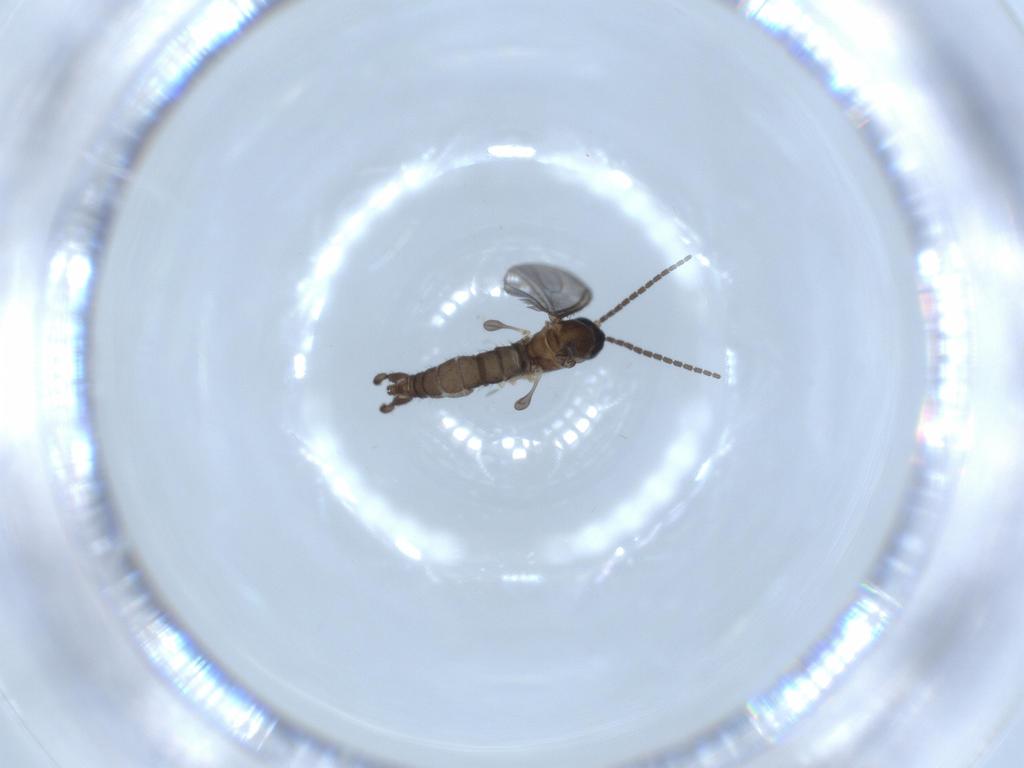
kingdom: Animalia
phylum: Arthropoda
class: Insecta
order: Diptera
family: Sciaridae
